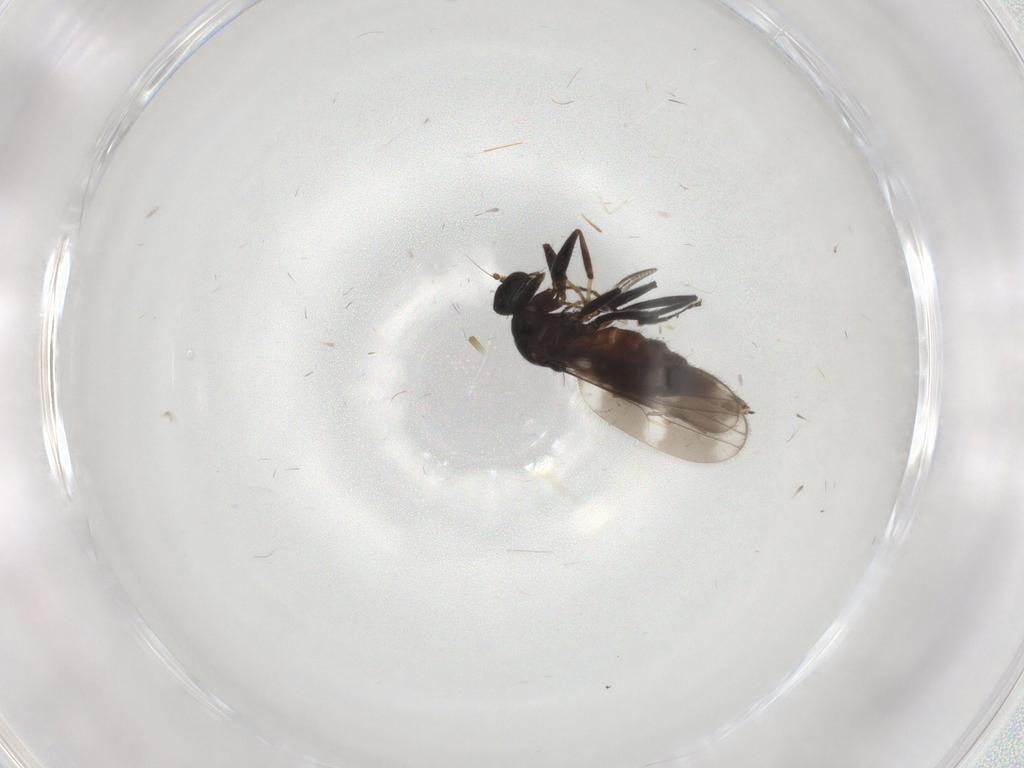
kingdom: Animalia
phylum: Arthropoda
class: Insecta
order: Diptera
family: Cecidomyiidae
